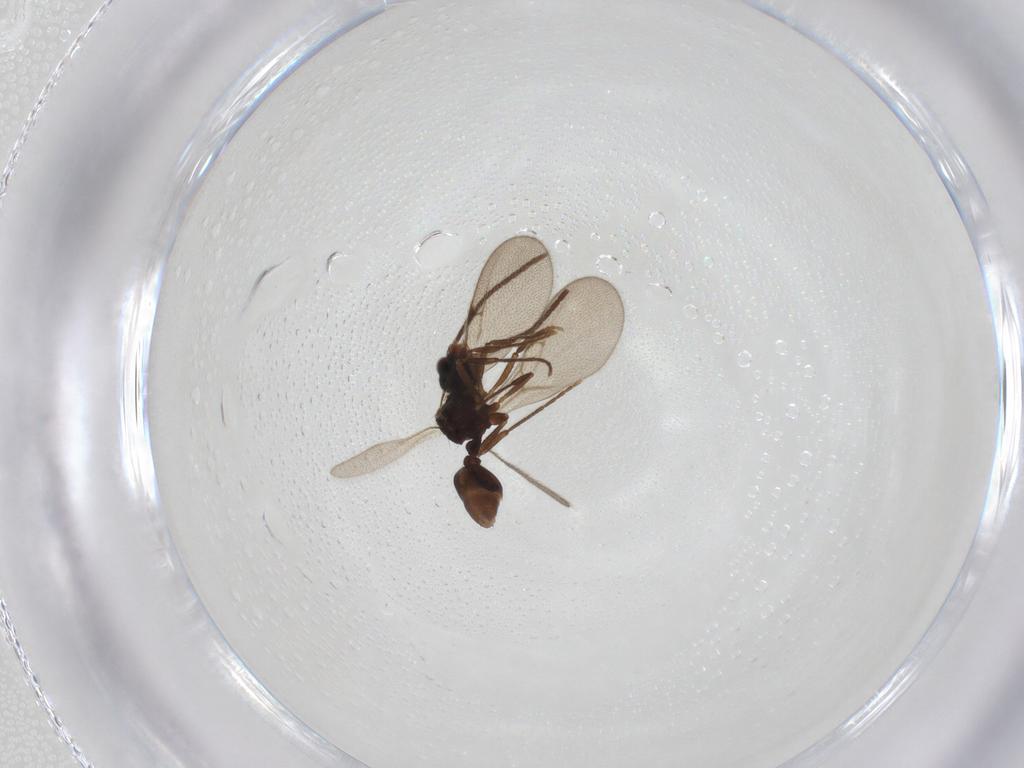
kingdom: Animalia
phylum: Arthropoda
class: Insecta
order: Hymenoptera
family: Formicidae
